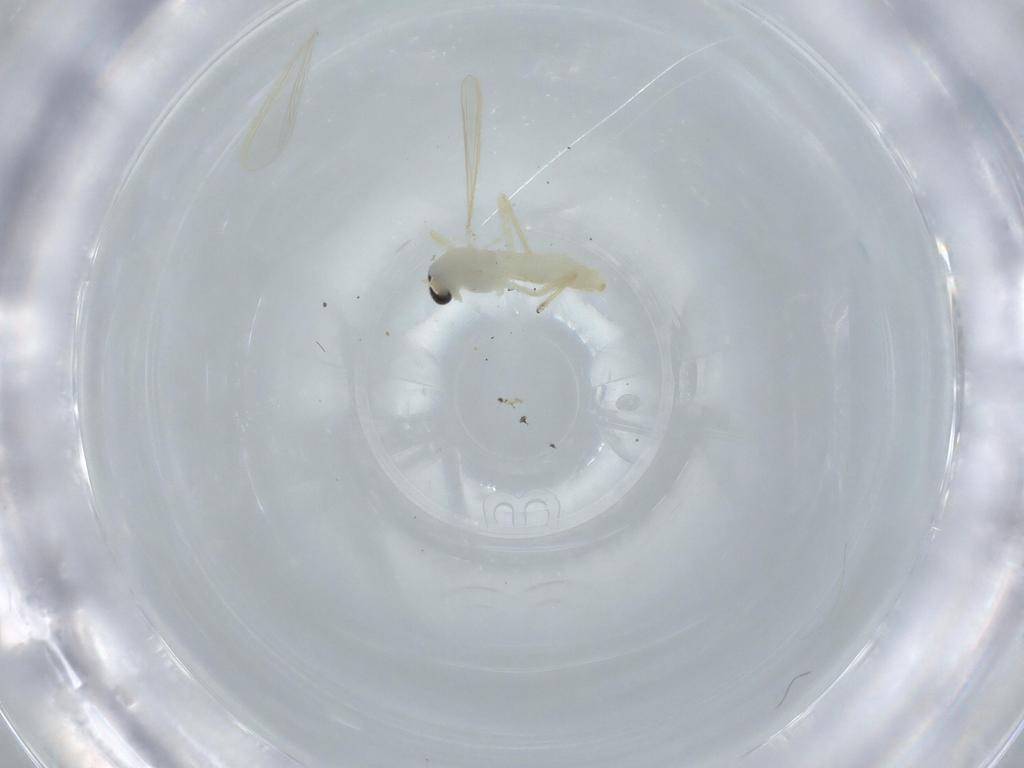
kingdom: Animalia
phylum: Arthropoda
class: Insecta
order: Diptera
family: Chironomidae
